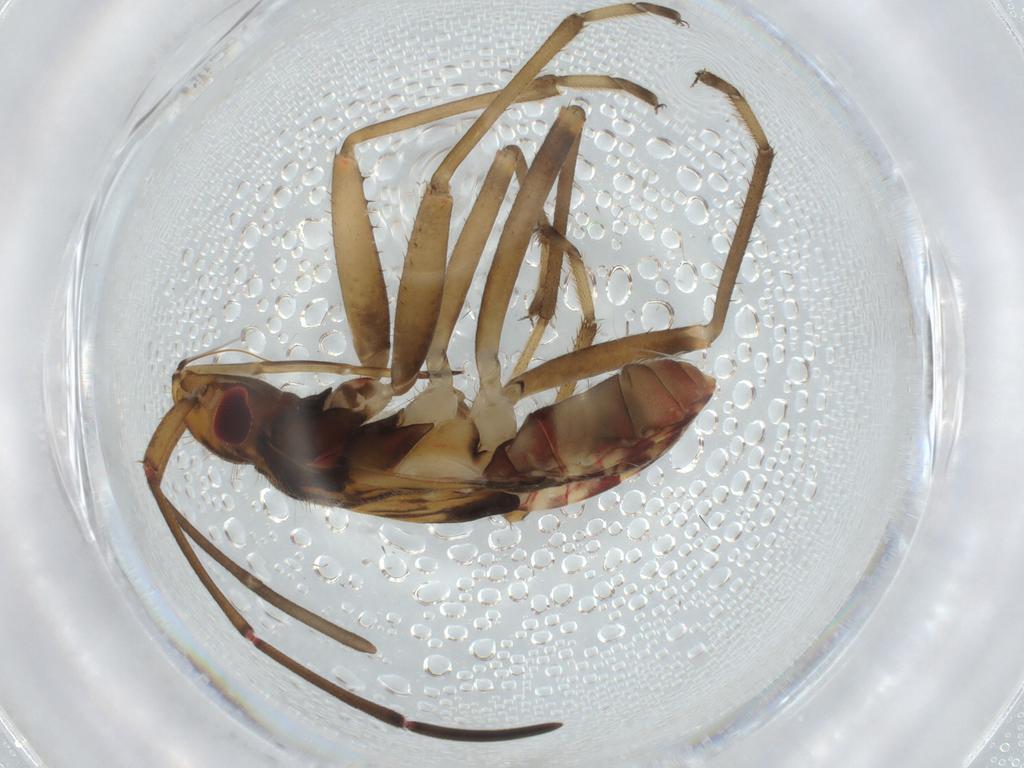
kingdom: Animalia
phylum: Arthropoda
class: Insecta
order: Hemiptera
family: Rhyparochromidae
